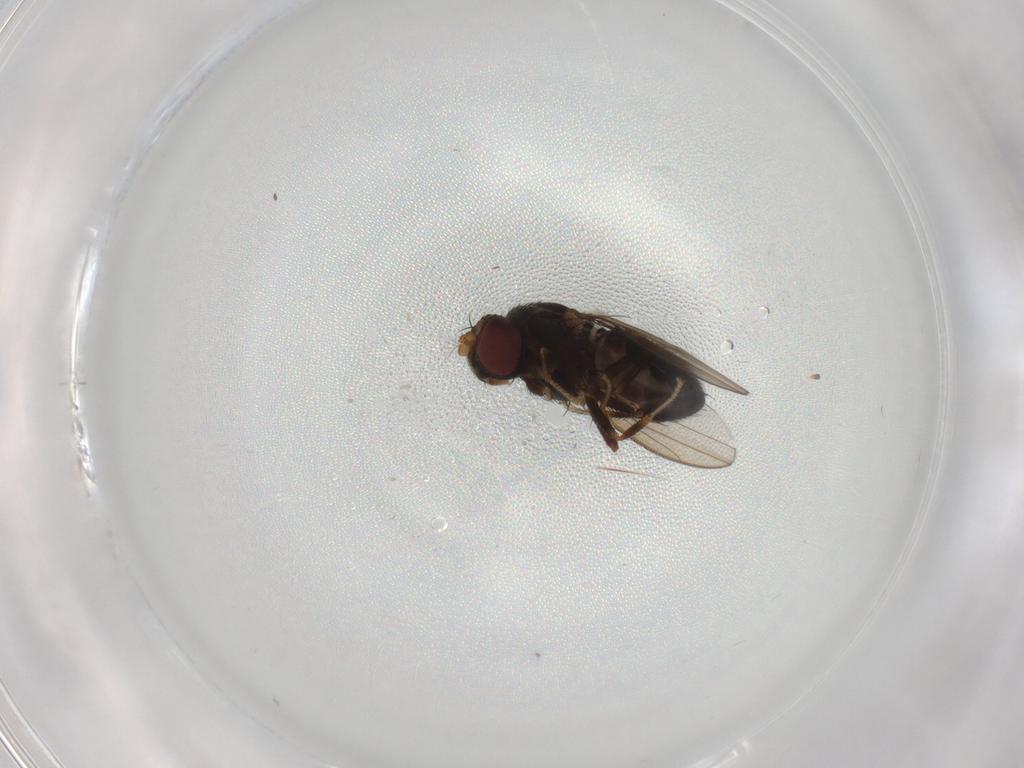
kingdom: Animalia
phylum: Arthropoda
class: Insecta
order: Diptera
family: Ephydridae
